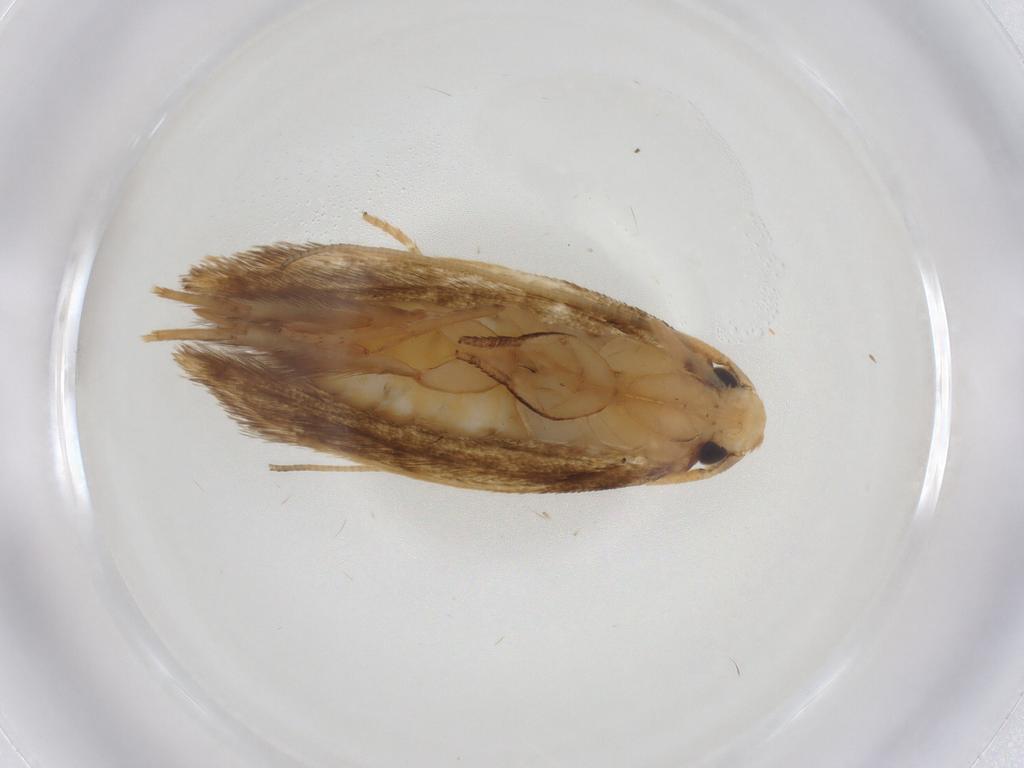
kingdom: Animalia
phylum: Arthropoda
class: Insecta
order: Lepidoptera
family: Tineidae
